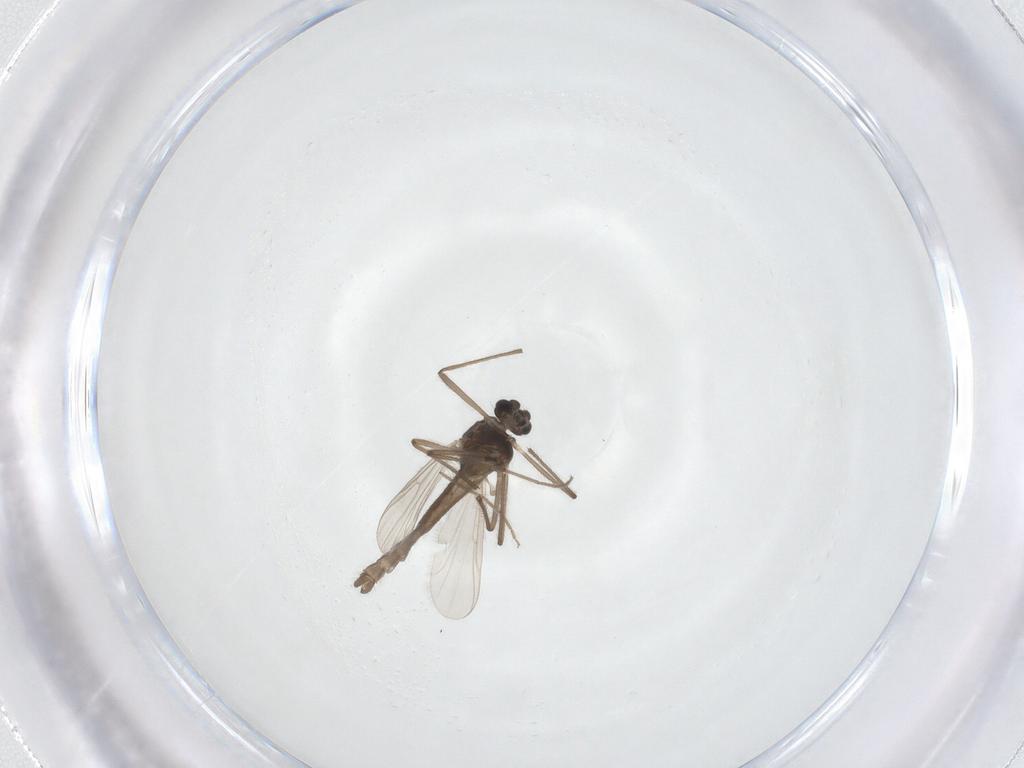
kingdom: Animalia
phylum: Arthropoda
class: Insecta
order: Diptera
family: Chironomidae
